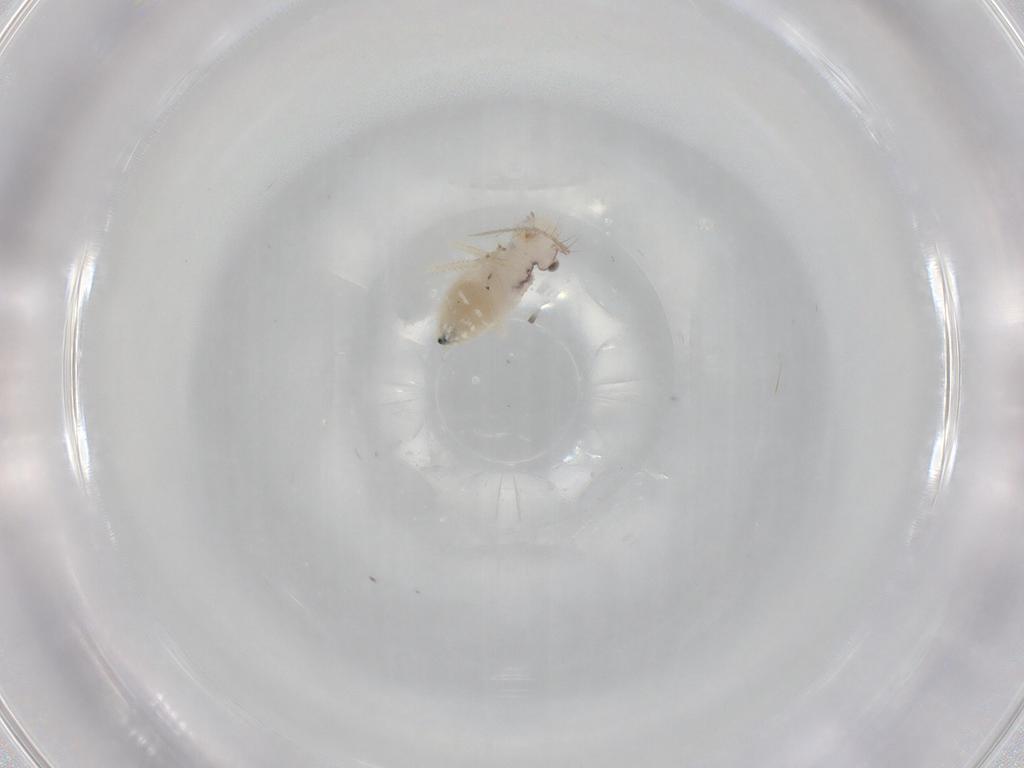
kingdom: Animalia
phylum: Arthropoda
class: Insecta
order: Psocodea
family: Pseudocaeciliidae
